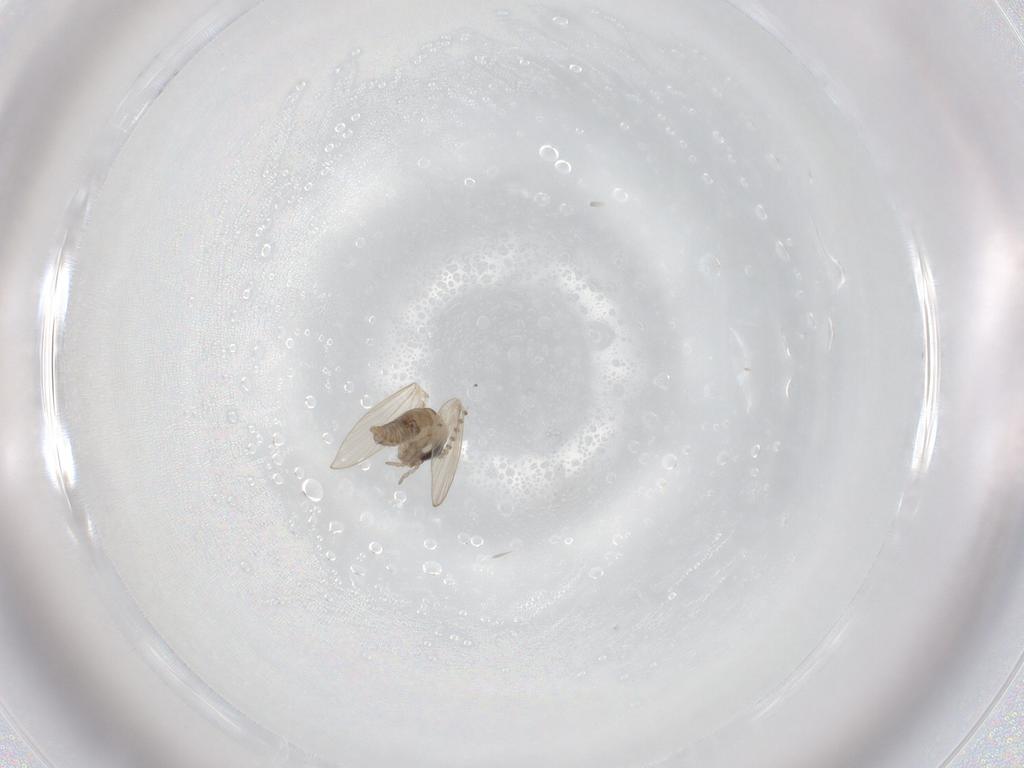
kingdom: Animalia
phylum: Arthropoda
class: Insecta
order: Diptera
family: Psychodidae
